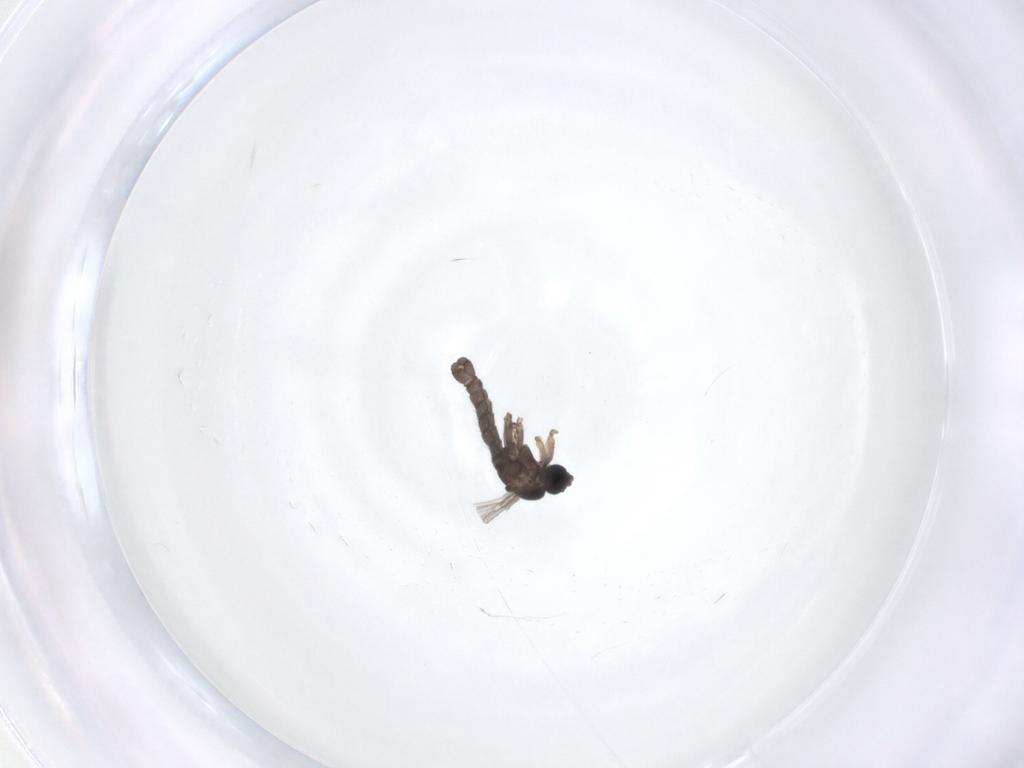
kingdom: Animalia
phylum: Arthropoda
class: Insecta
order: Diptera
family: Sciaridae
